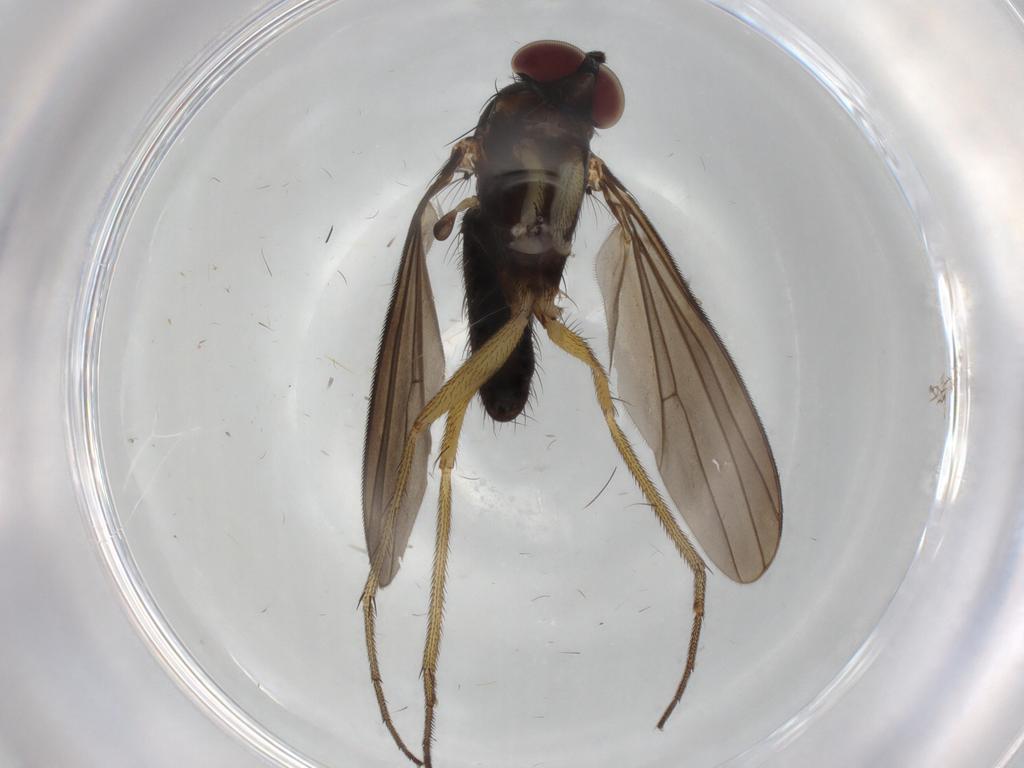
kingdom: Animalia
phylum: Arthropoda
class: Insecta
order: Diptera
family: Dolichopodidae
